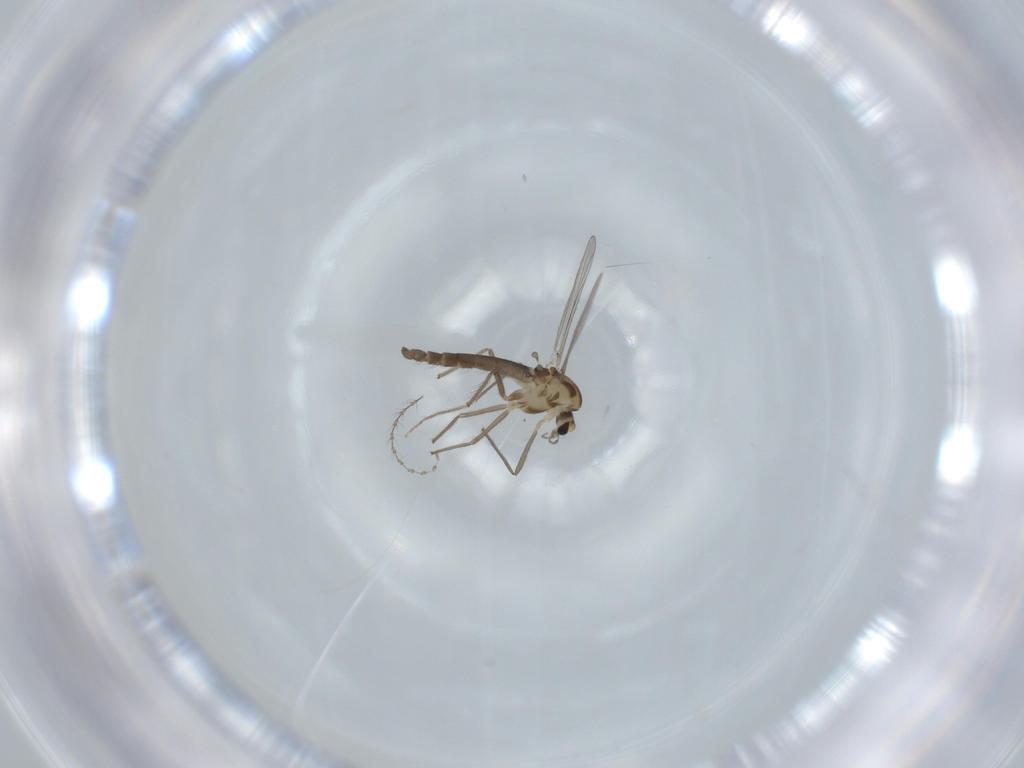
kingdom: Animalia
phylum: Arthropoda
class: Insecta
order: Diptera
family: Chironomidae
